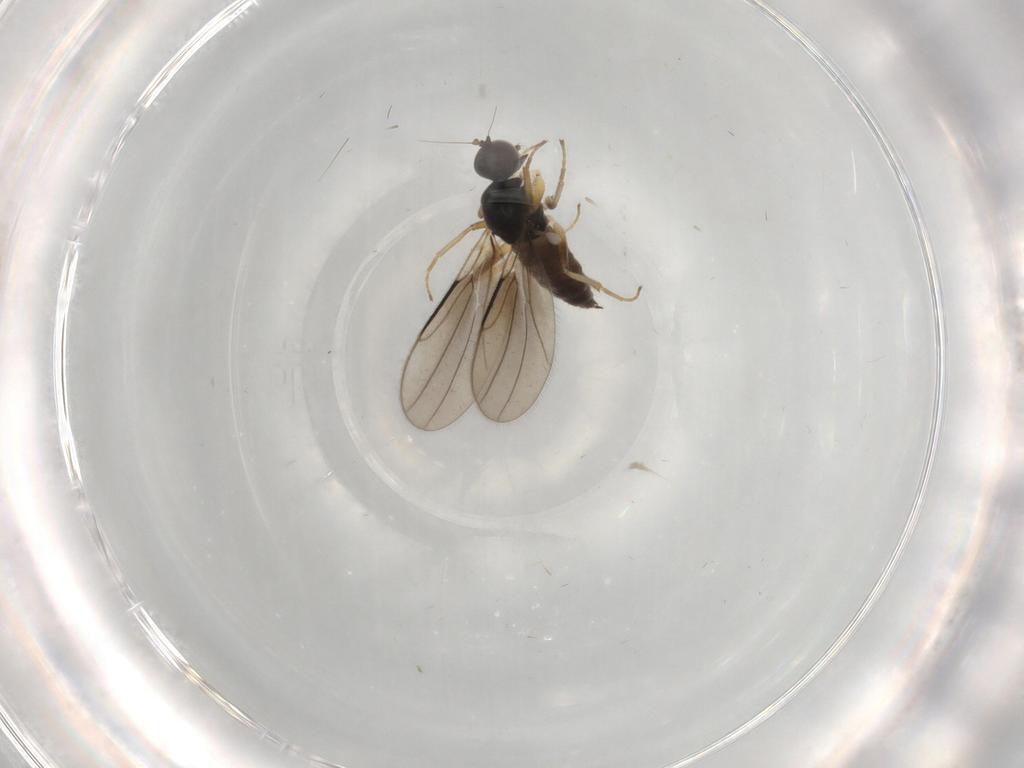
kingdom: Animalia
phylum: Arthropoda
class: Insecta
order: Diptera
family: Hybotidae
